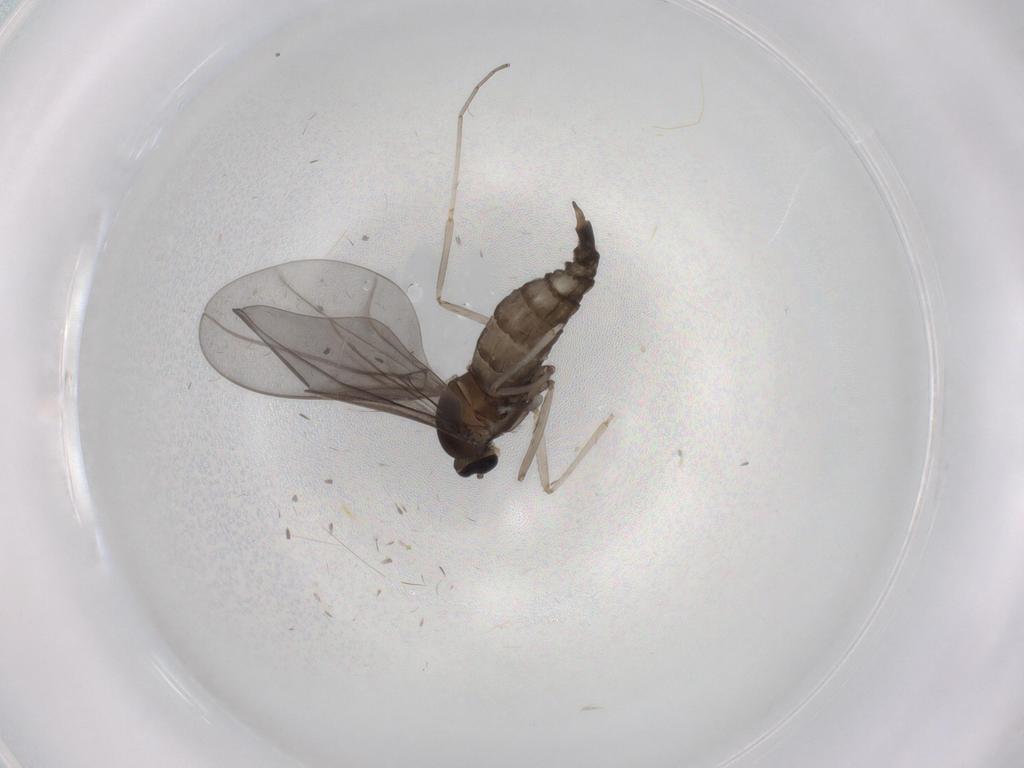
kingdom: Animalia
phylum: Arthropoda
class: Insecta
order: Diptera
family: Cecidomyiidae
